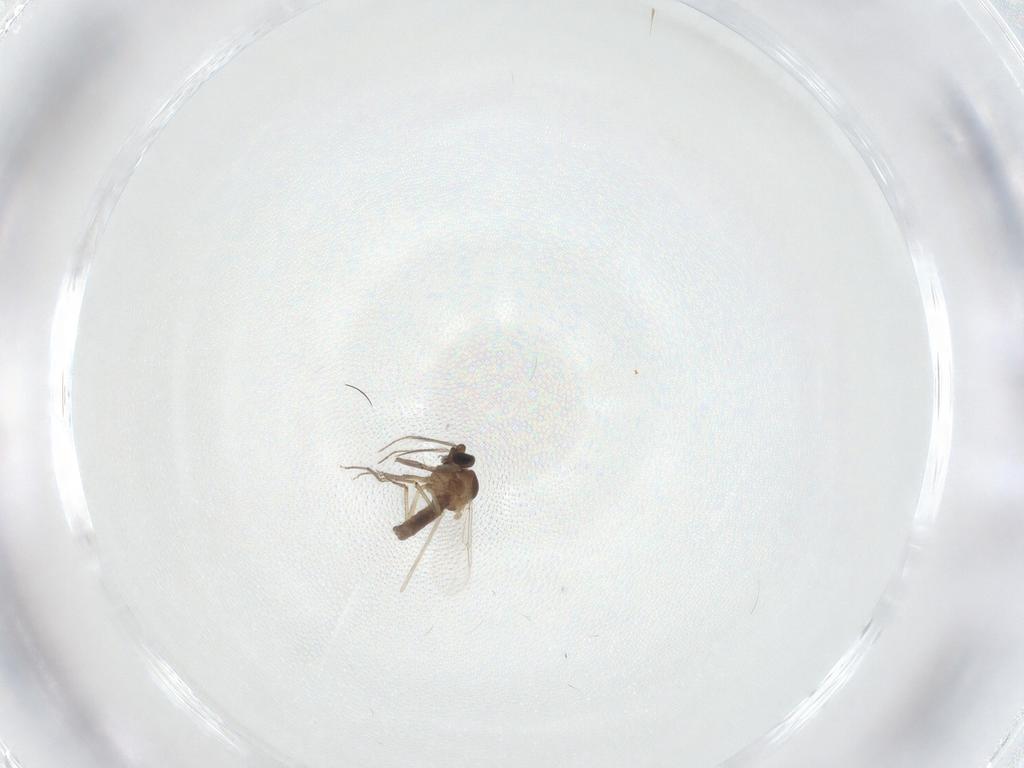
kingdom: Animalia
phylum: Arthropoda
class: Insecta
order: Diptera
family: Ceratopogonidae
